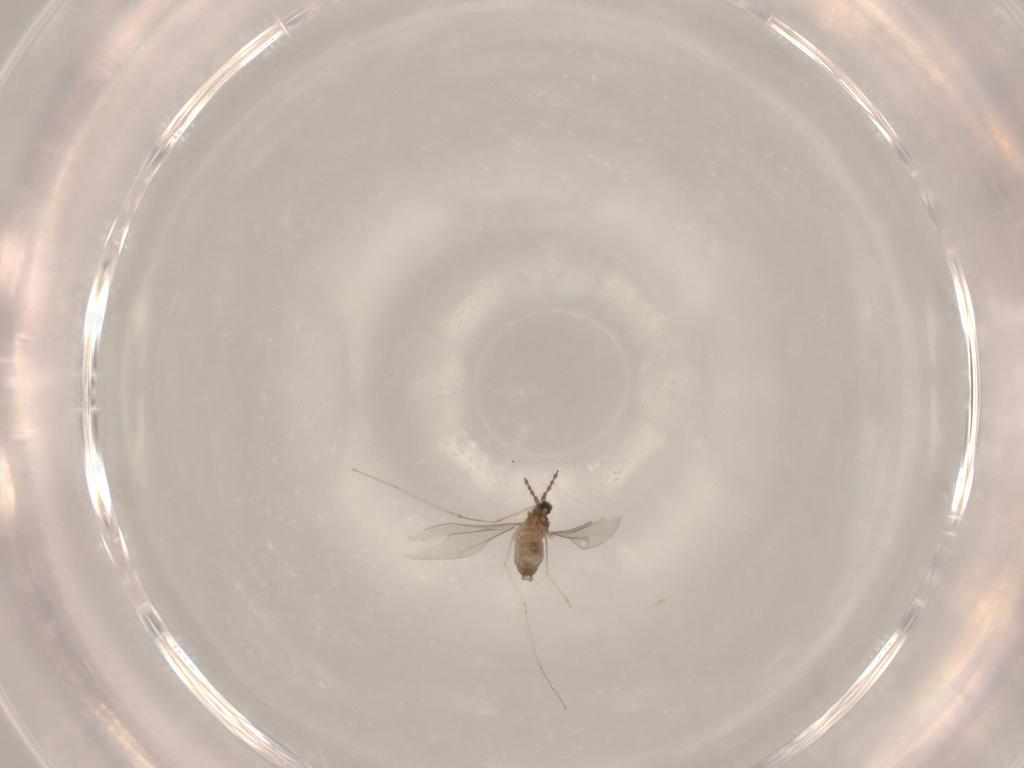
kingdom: Animalia
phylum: Arthropoda
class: Insecta
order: Diptera
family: Cecidomyiidae
